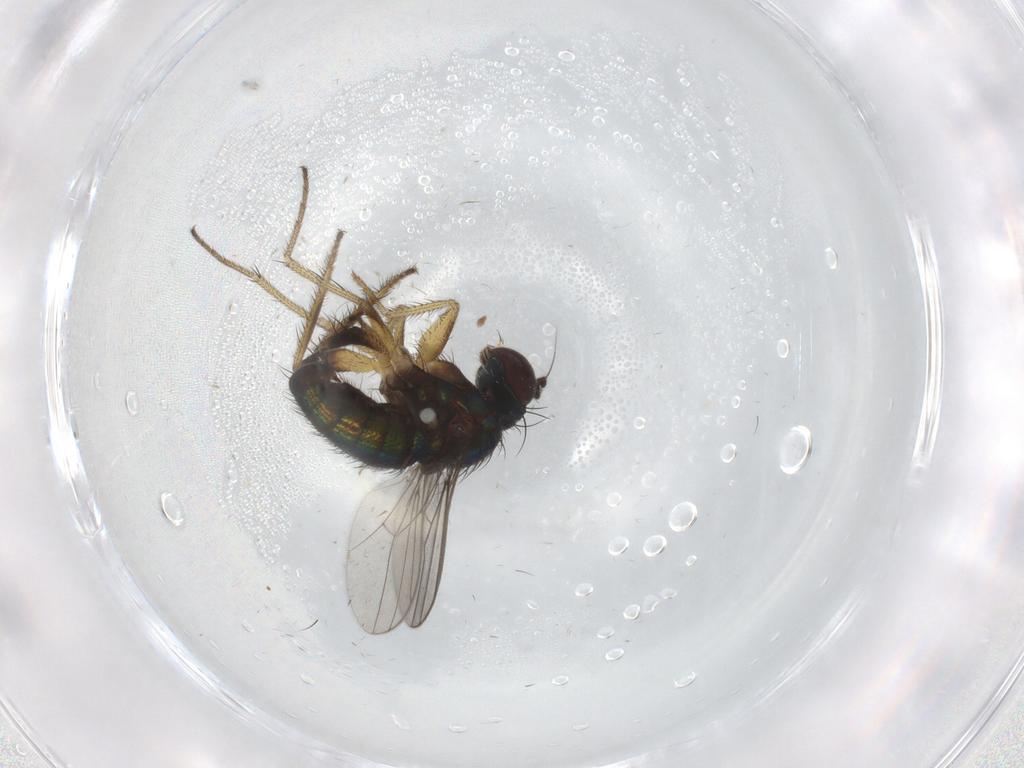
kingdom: Animalia
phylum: Arthropoda
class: Insecta
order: Diptera
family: Dolichopodidae
